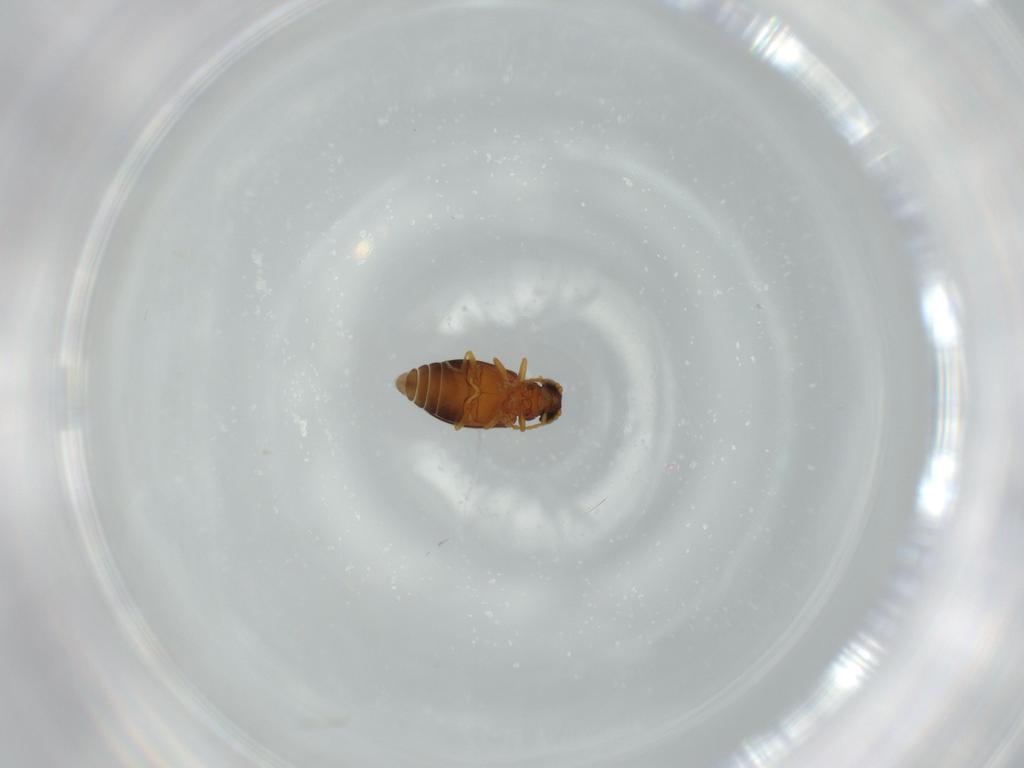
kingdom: Animalia
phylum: Arthropoda
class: Insecta
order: Coleoptera
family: Aderidae
